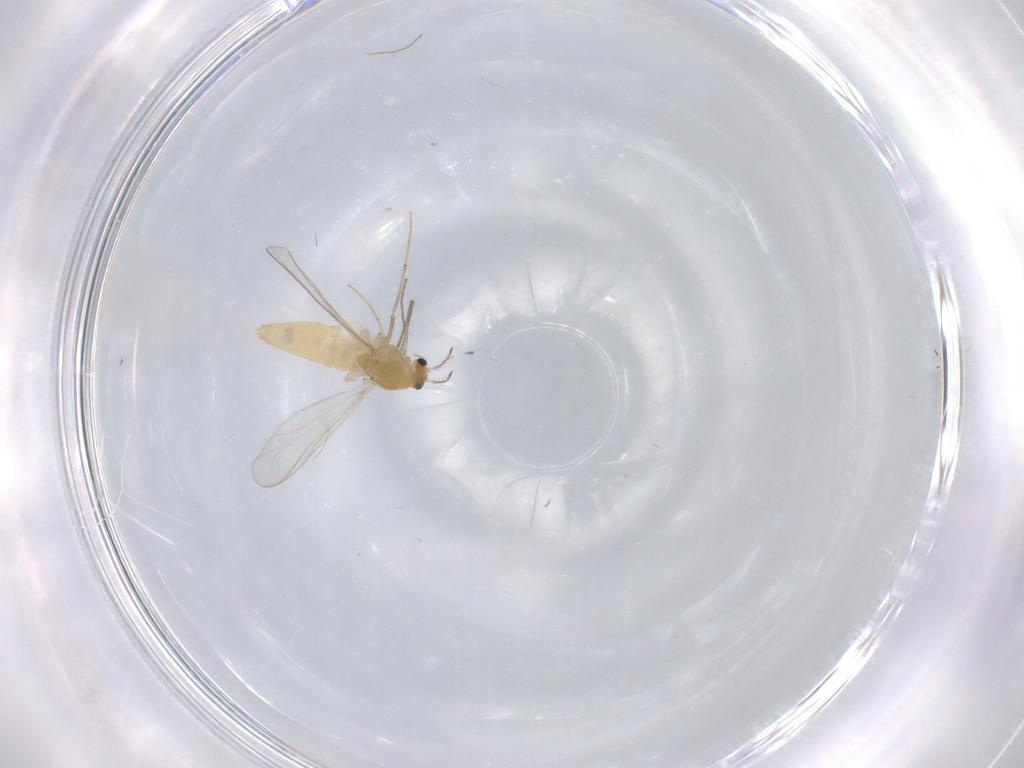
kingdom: Animalia
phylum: Arthropoda
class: Insecta
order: Diptera
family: Chironomidae
